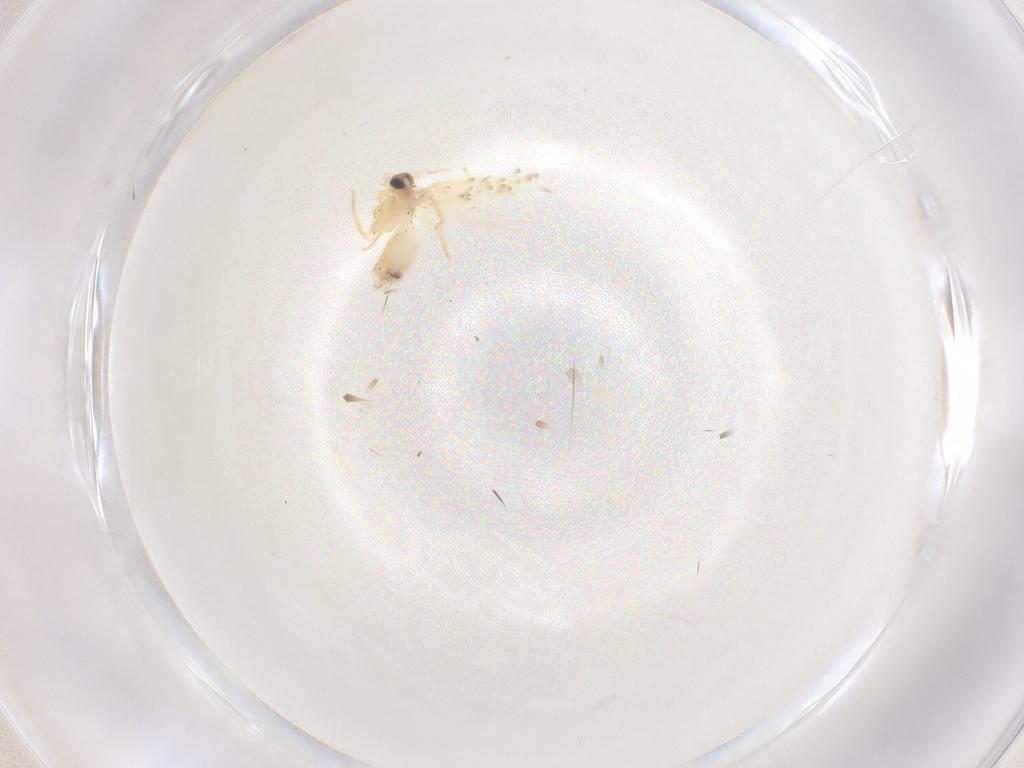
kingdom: Animalia
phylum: Arthropoda
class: Insecta
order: Lepidoptera
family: Nepticulidae
